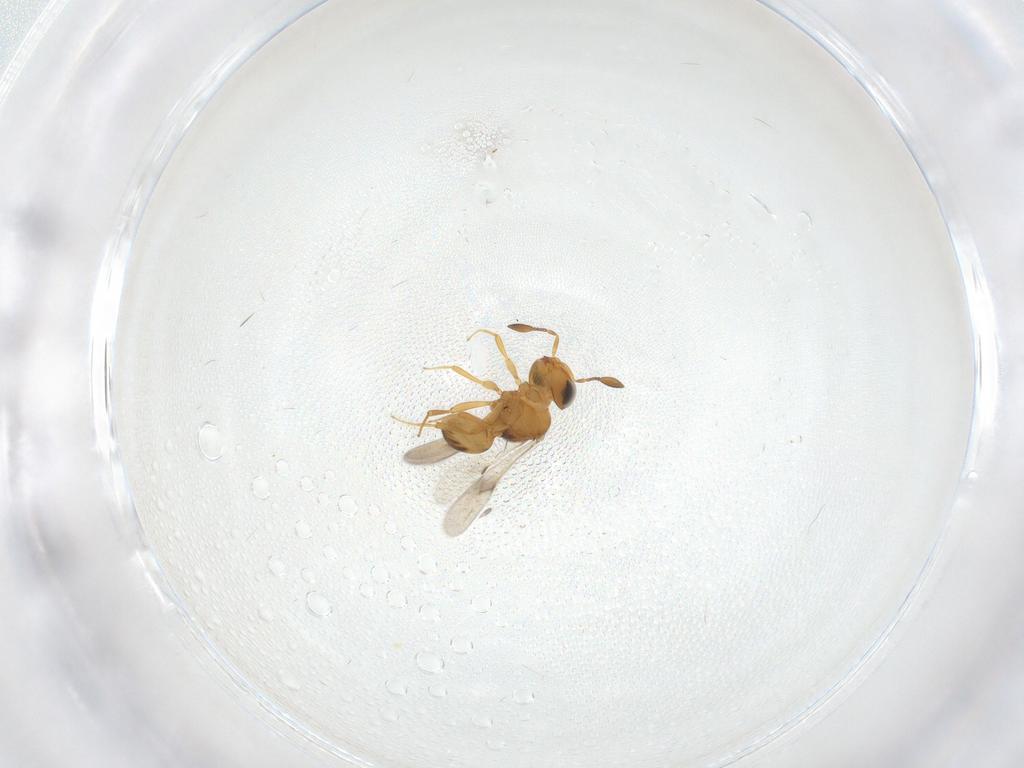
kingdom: Animalia
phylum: Arthropoda
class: Insecta
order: Hymenoptera
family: Scelionidae
